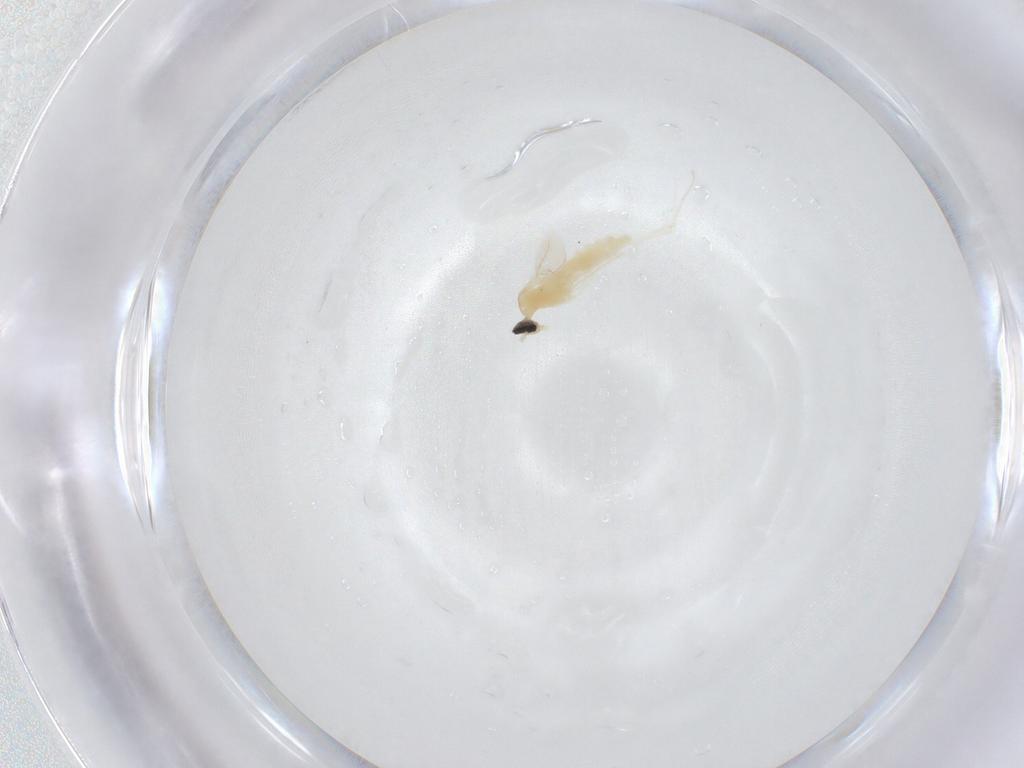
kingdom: Animalia
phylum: Arthropoda
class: Insecta
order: Diptera
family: Cecidomyiidae
